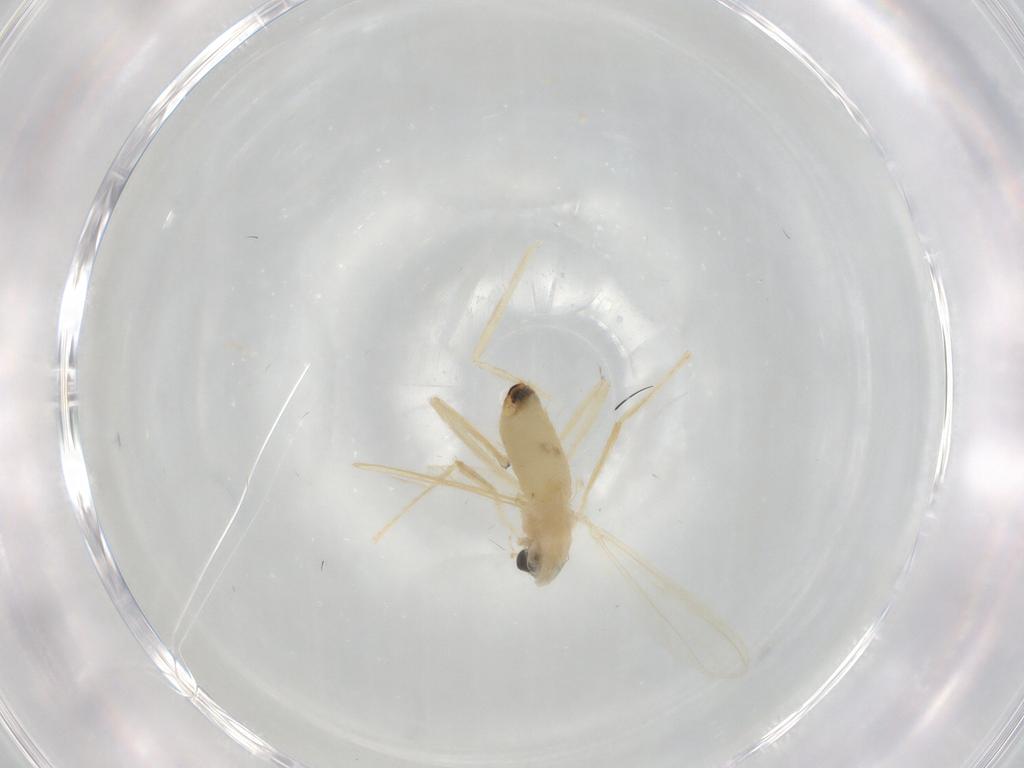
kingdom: Animalia
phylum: Arthropoda
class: Insecta
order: Diptera
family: Chironomidae
